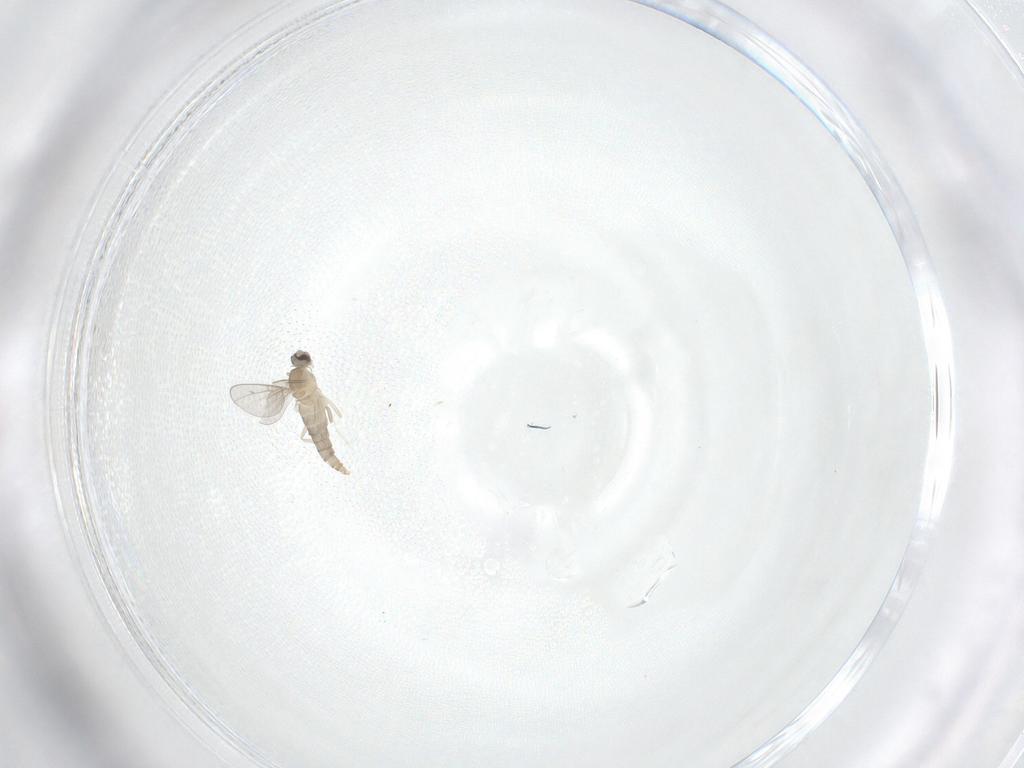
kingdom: Animalia
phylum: Arthropoda
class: Insecta
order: Diptera
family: Cecidomyiidae
